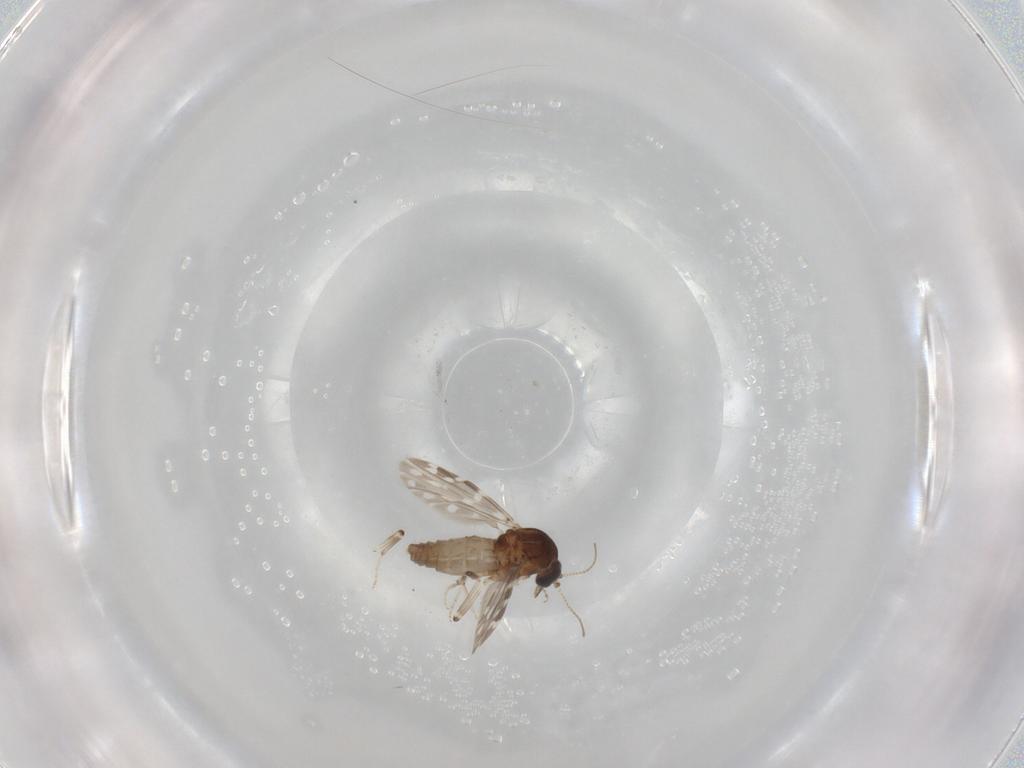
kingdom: Animalia
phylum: Arthropoda
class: Insecta
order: Diptera
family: Ceratopogonidae
